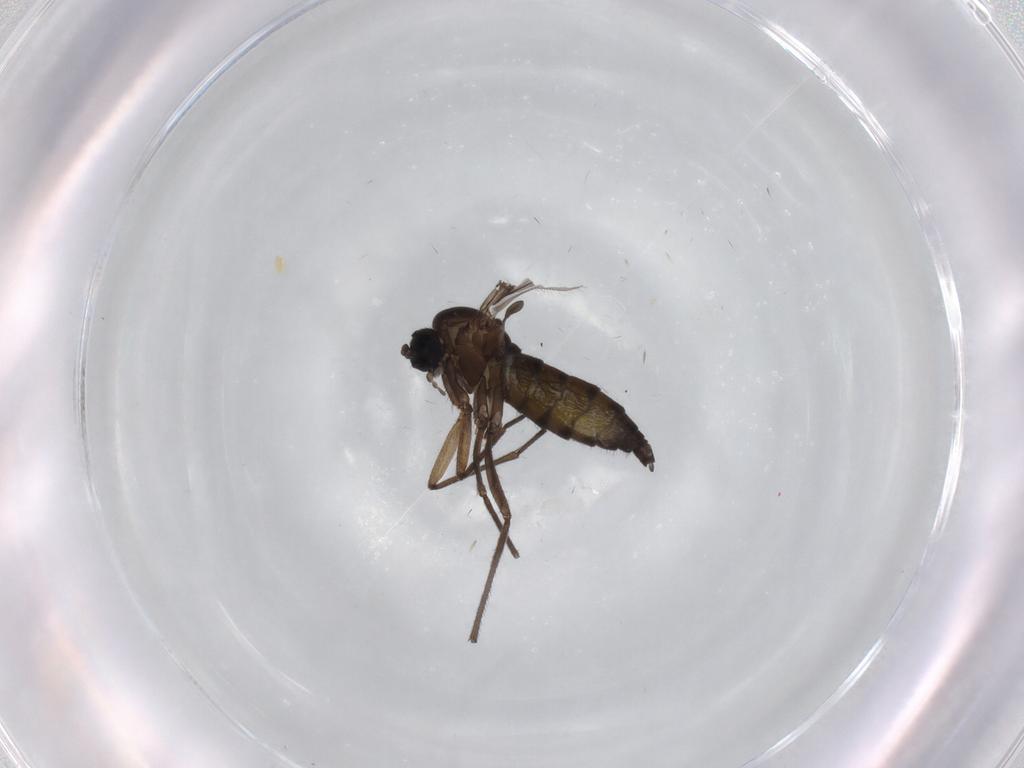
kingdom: Animalia
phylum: Arthropoda
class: Insecta
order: Diptera
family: Sciaridae
